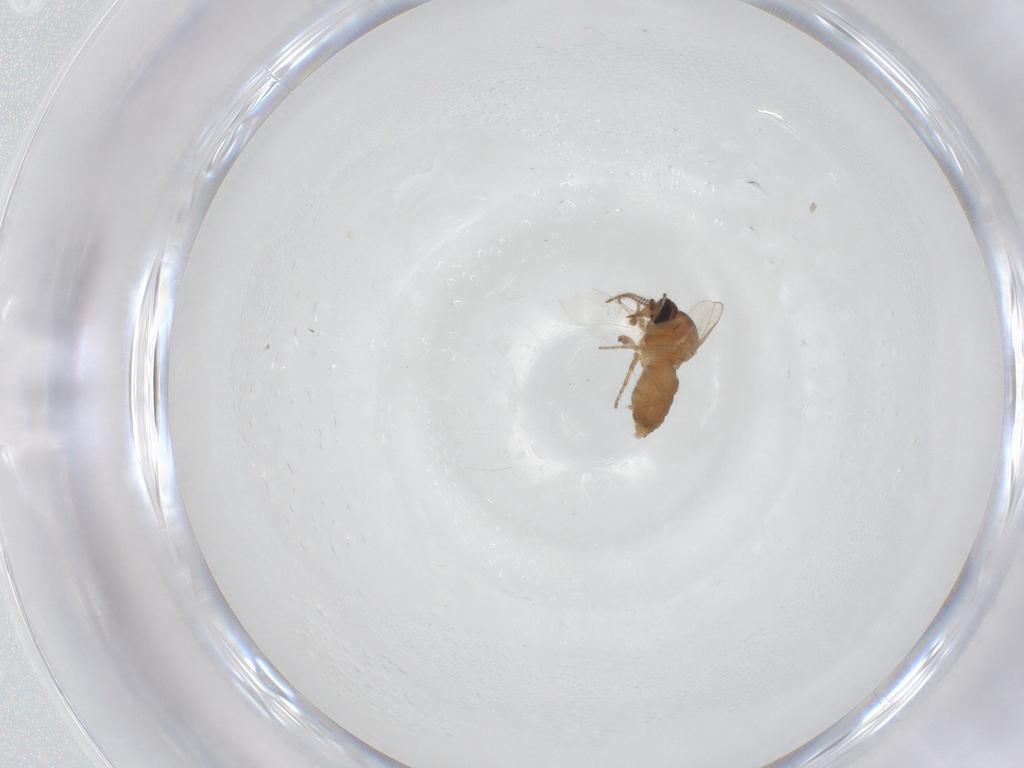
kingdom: Animalia
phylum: Arthropoda
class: Insecta
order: Diptera
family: Ceratopogonidae
